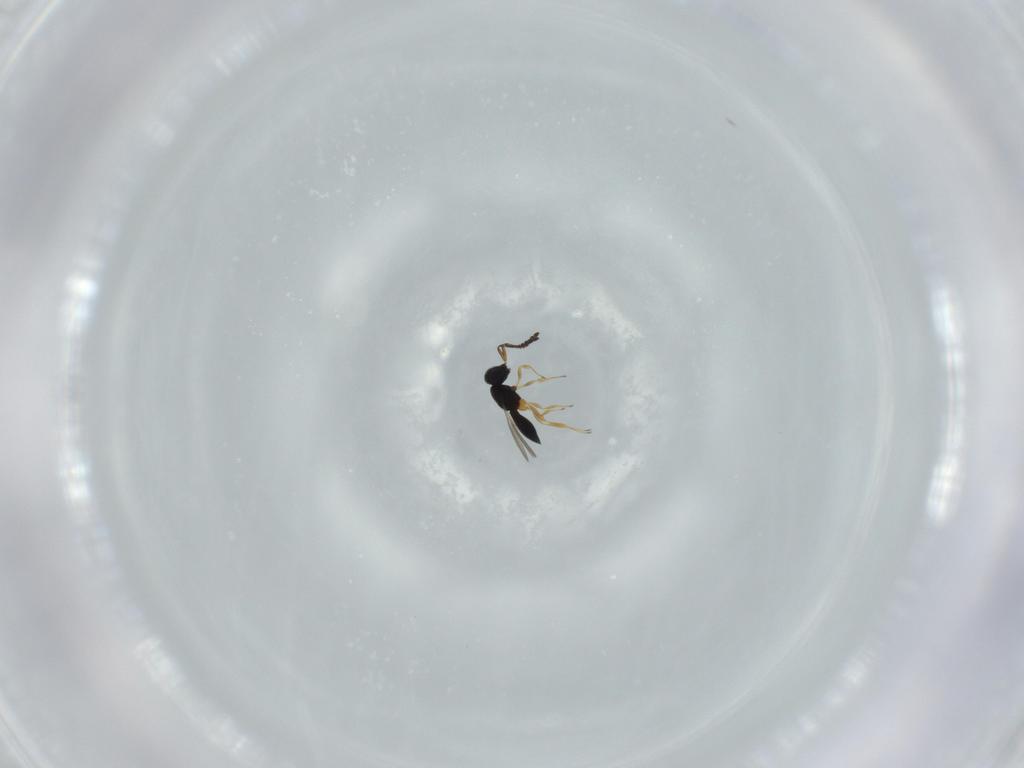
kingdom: Animalia
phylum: Arthropoda
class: Insecta
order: Hymenoptera
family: Scelionidae
